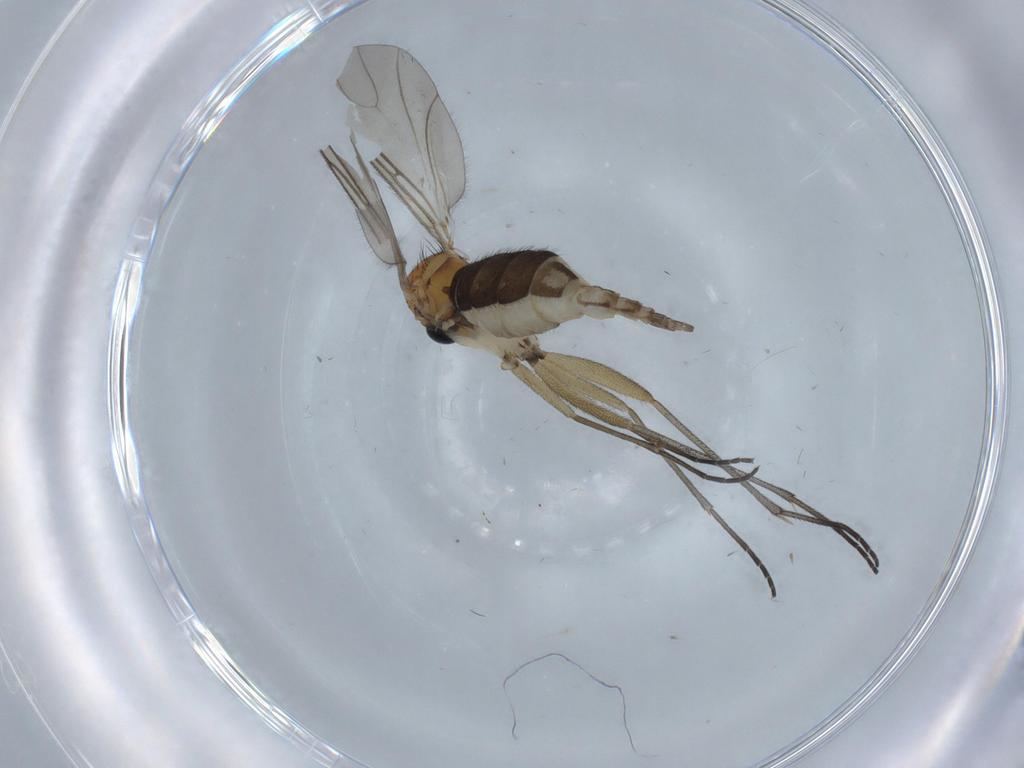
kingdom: Animalia
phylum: Arthropoda
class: Insecta
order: Diptera
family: Sciaridae
